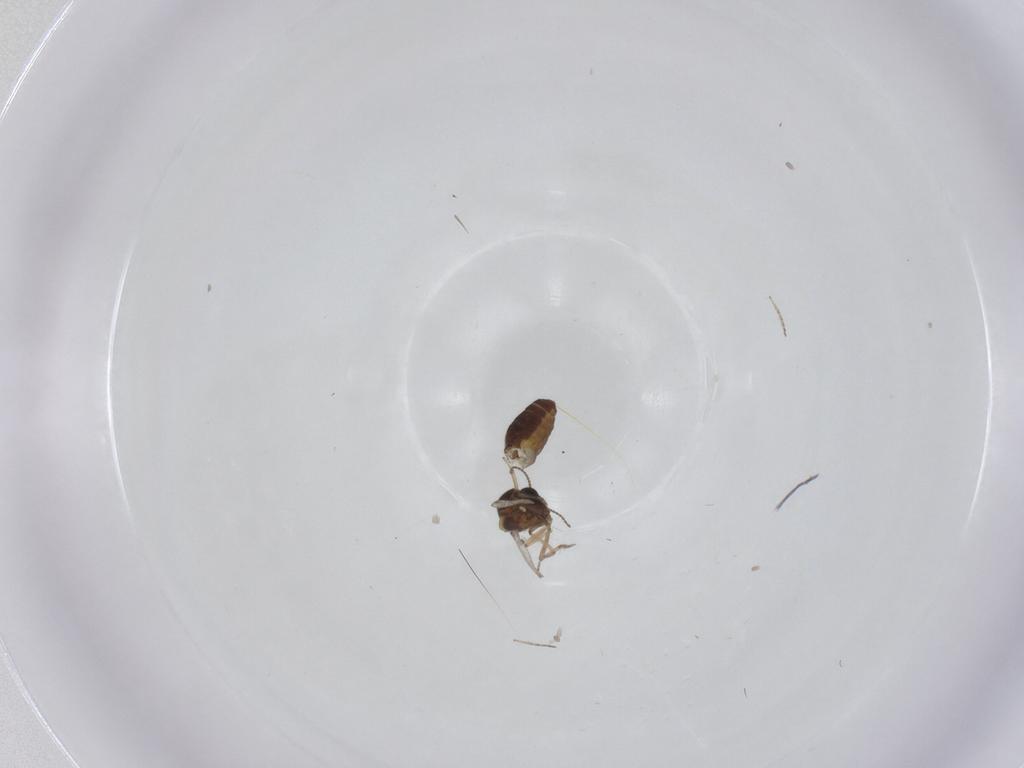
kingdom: Animalia
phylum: Arthropoda
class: Insecta
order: Diptera
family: Ceratopogonidae
